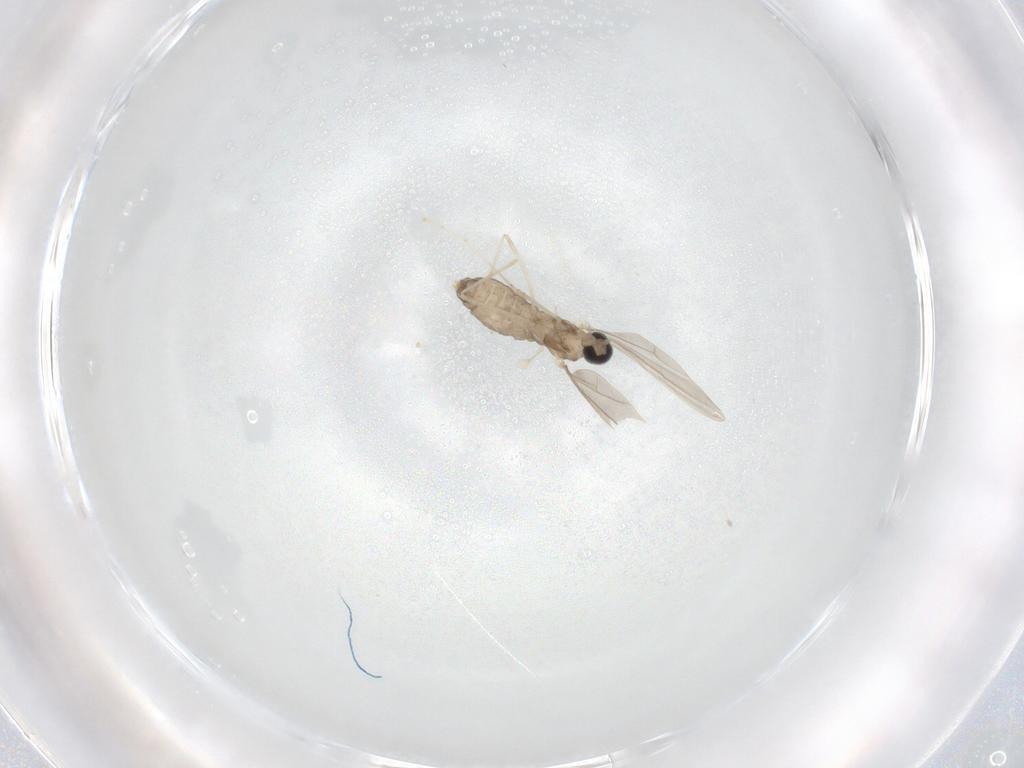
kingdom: Animalia
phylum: Arthropoda
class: Insecta
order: Diptera
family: Cecidomyiidae
